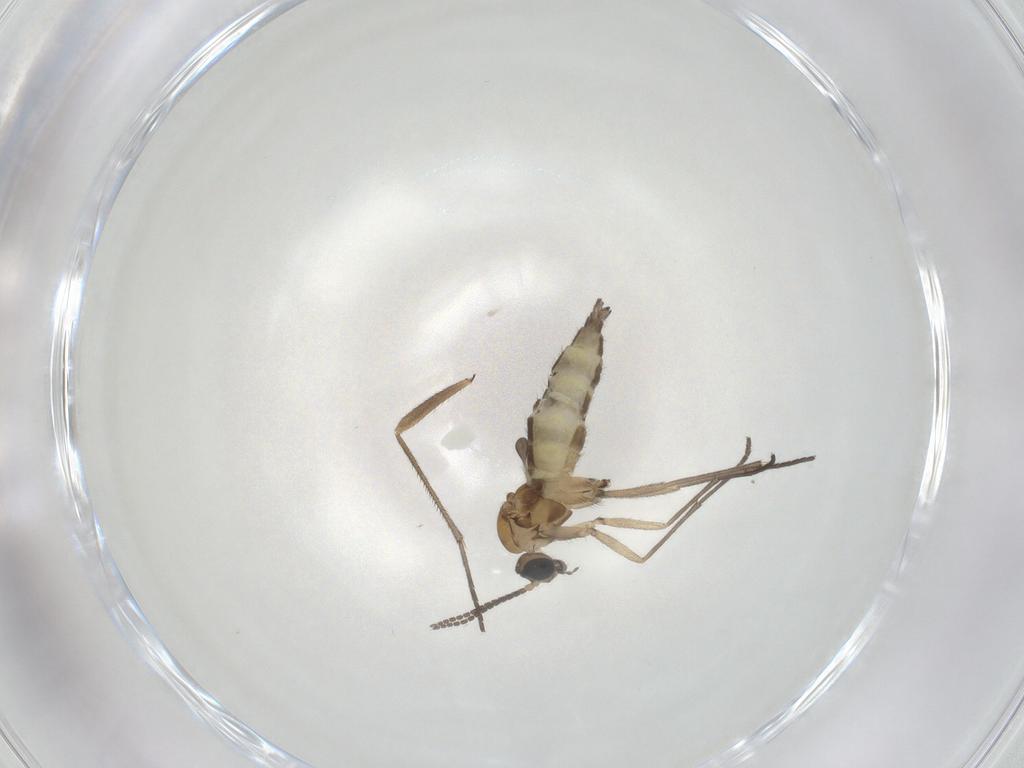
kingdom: Animalia
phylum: Arthropoda
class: Insecta
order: Diptera
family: Sciaridae
